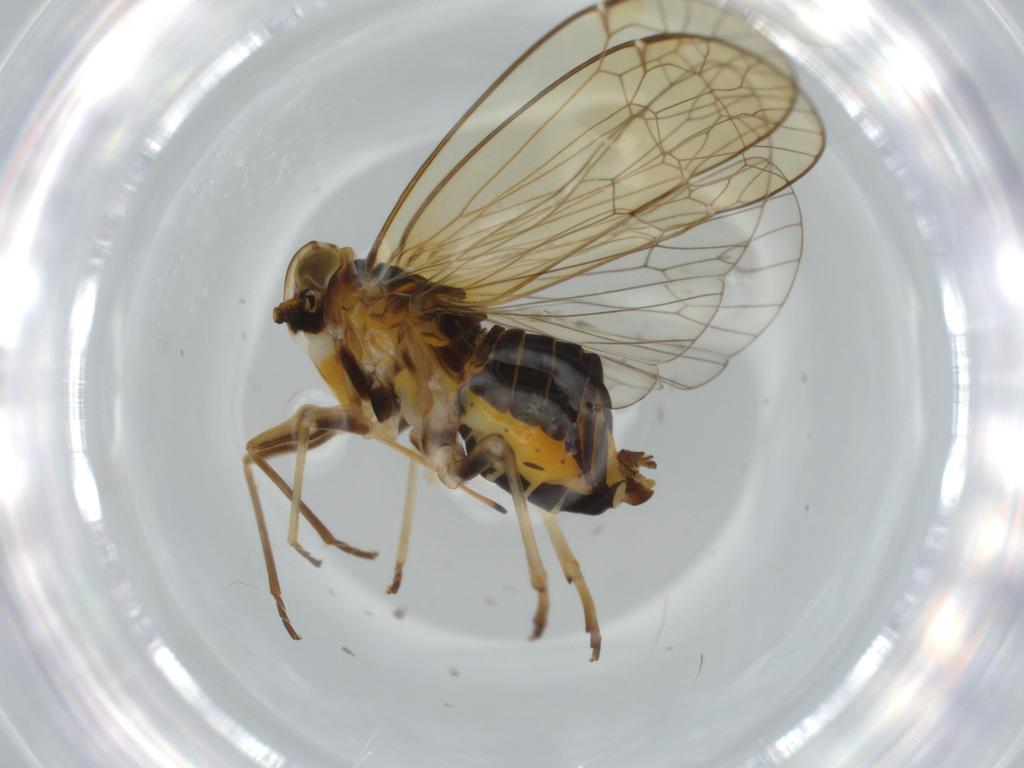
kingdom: Animalia
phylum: Arthropoda
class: Insecta
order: Hemiptera
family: Kinnaridae
